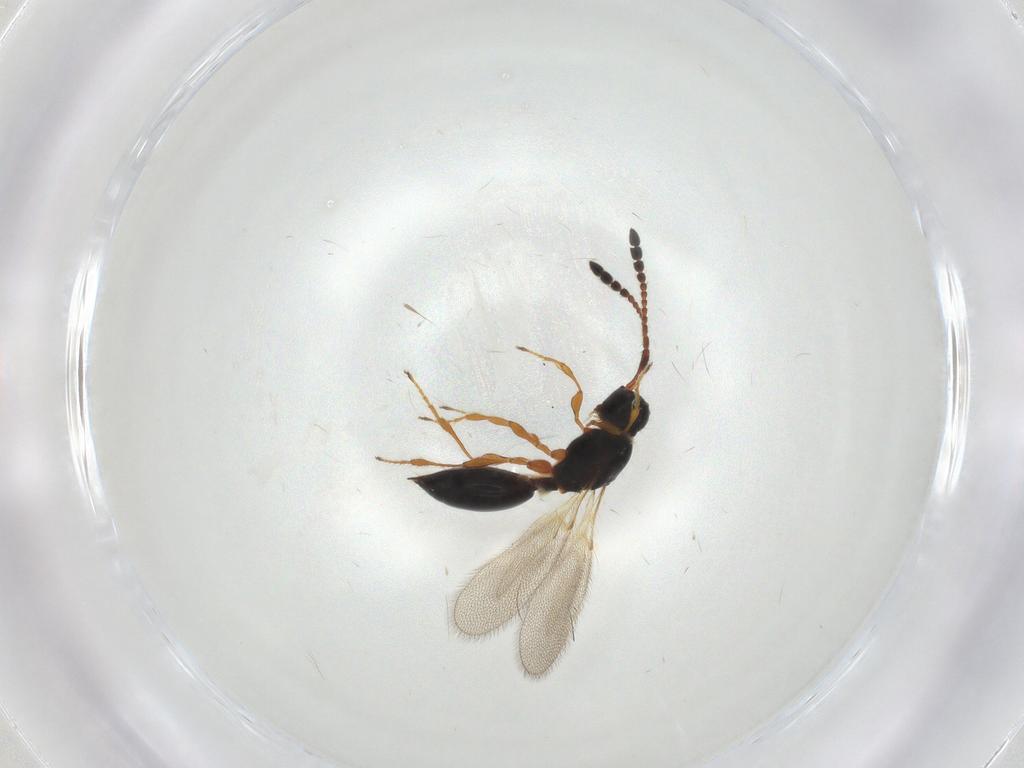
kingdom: Animalia
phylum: Arthropoda
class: Insecta
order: Hymenoptera
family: Diapriidae
